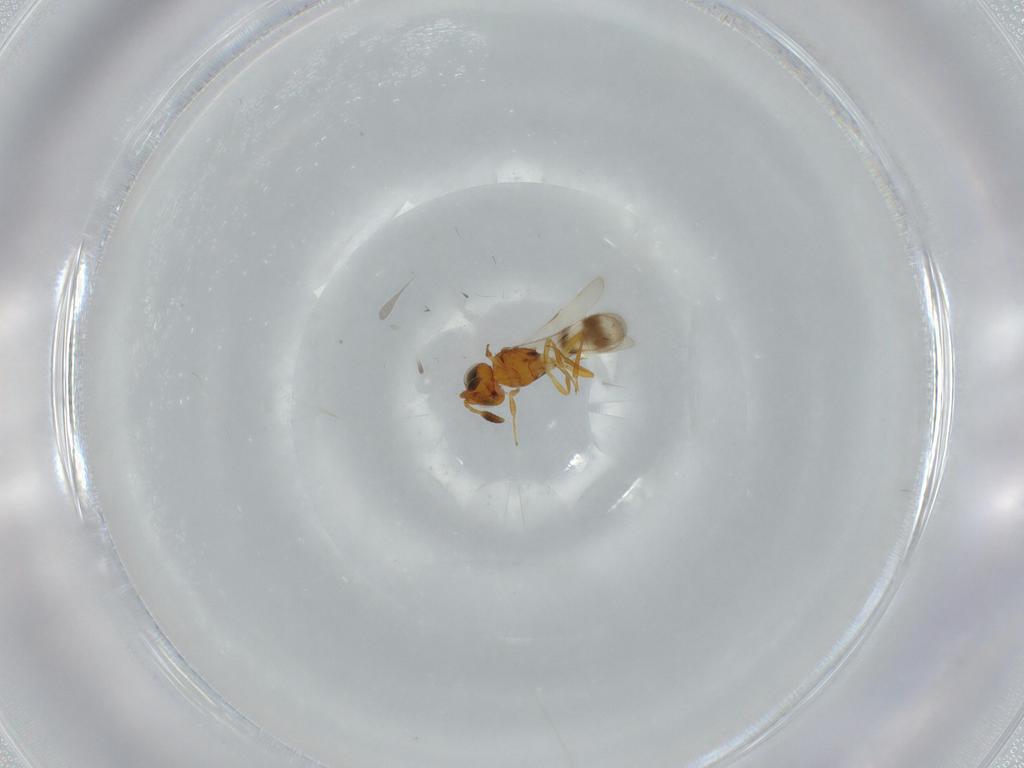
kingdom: Animalia
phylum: Arthropoda
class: Insecta
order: Hymenoptera
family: Scelionidae
